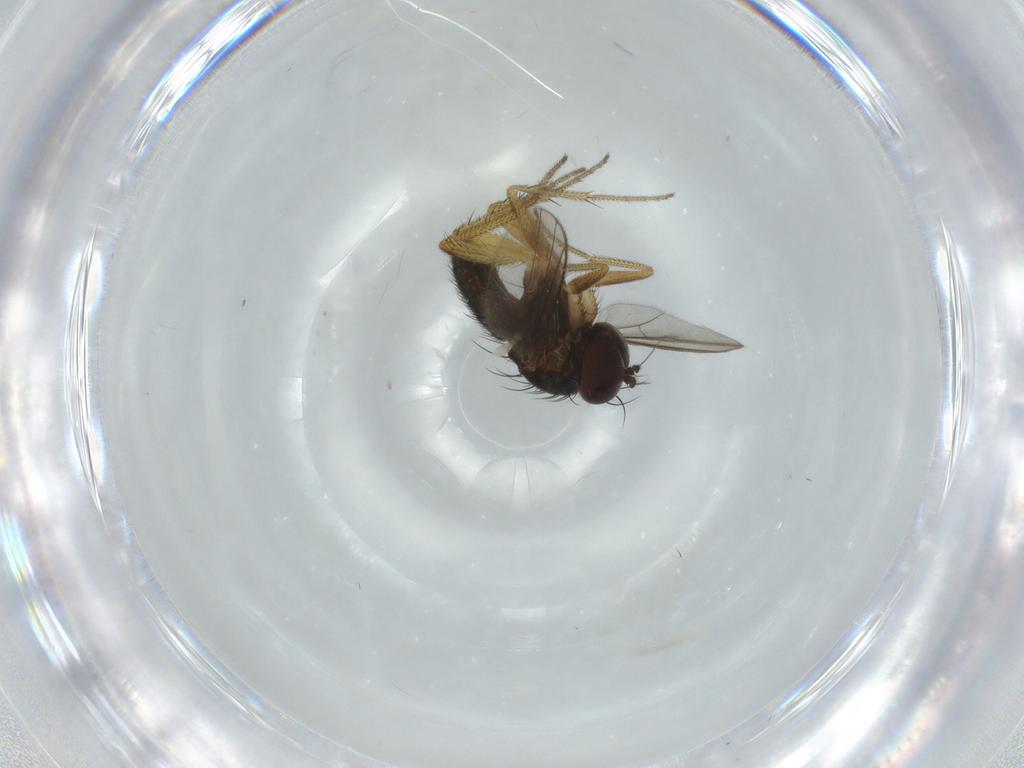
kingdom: Animalia
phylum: Arthropoda
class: Insecta
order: Diptera
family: Dolichopodidae
